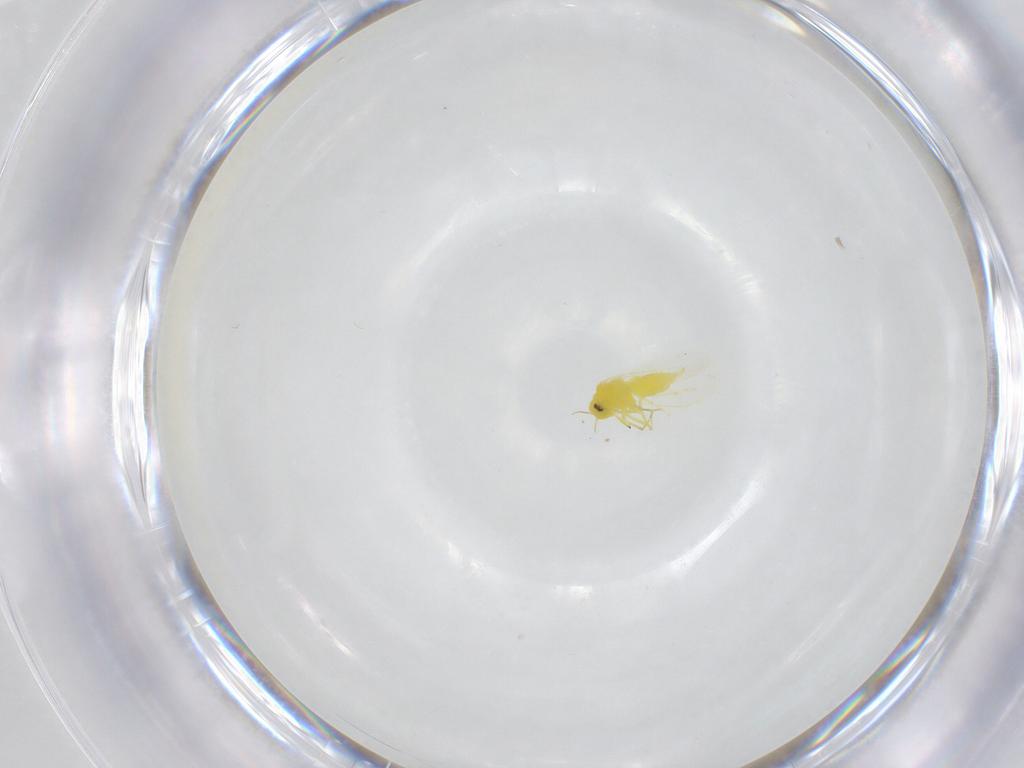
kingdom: Animalia
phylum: Arthropoda
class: Insecta
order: Hemiptera
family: Aleyrodidae
